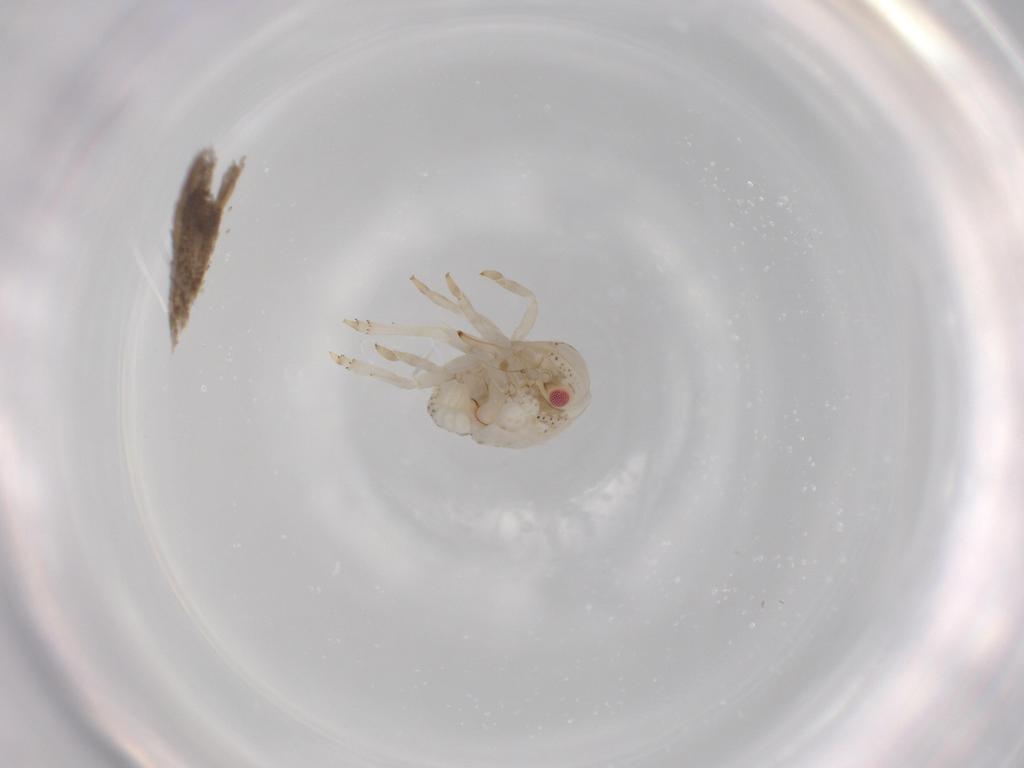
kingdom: Animalia
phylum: Arthropoda
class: Insecta
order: Hemiptera
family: Acanaloniidae
